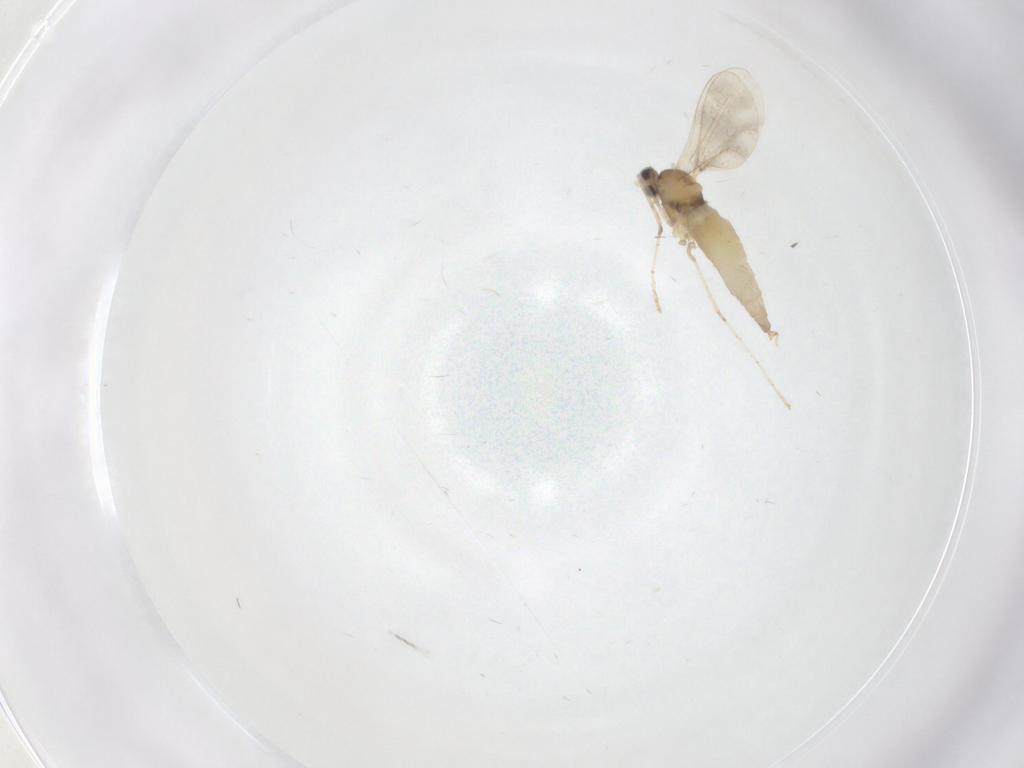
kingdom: Animalia
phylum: Arthropoda
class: Insecta
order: Diptera
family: Cecidomyiidae
